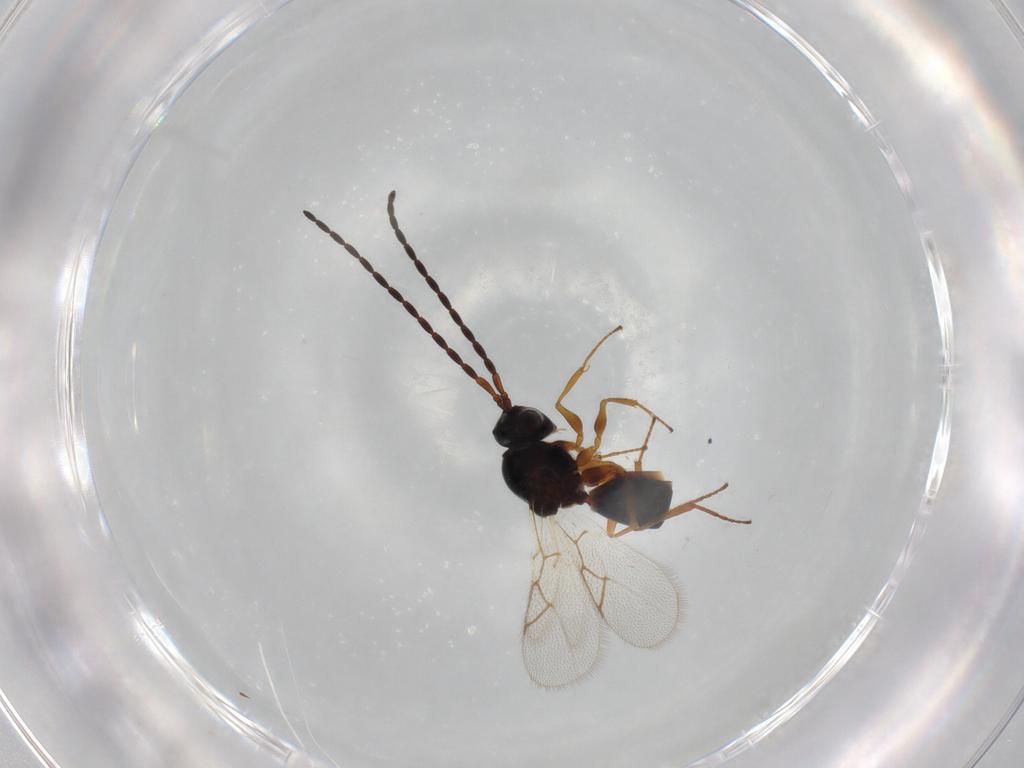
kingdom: Animalia
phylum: Arthropoda
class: Insecta
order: Hymenoptera
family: Figitidae
